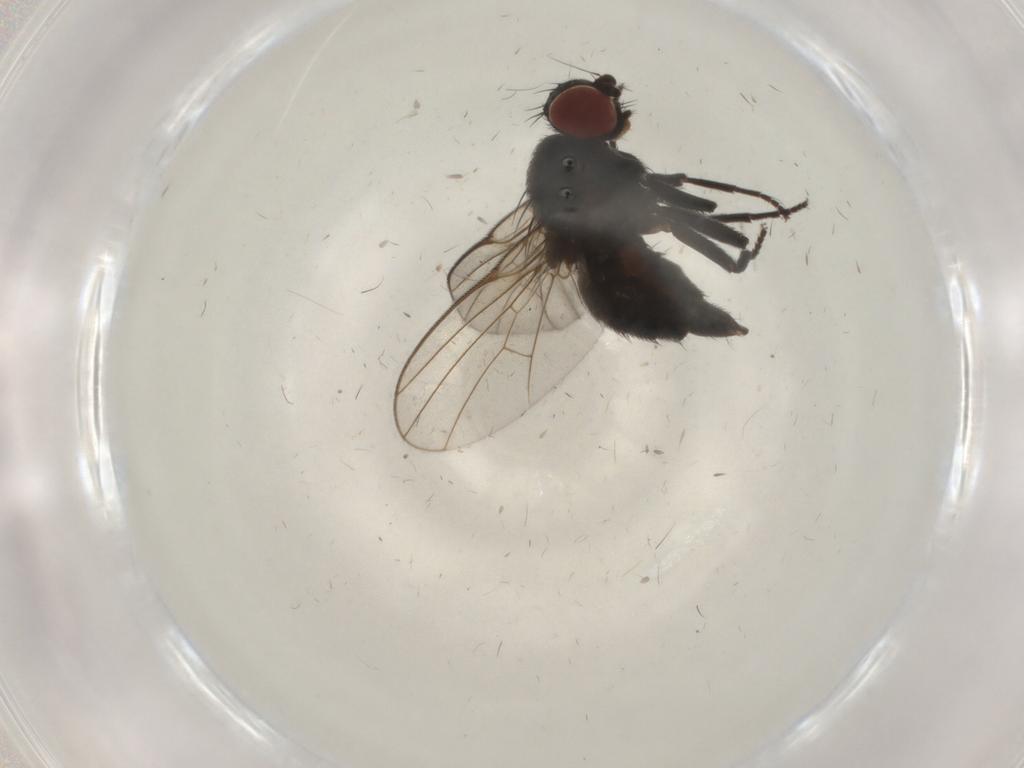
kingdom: Animalia
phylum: Arthropoda
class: Insecta
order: Diptera
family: Agromyzidae
